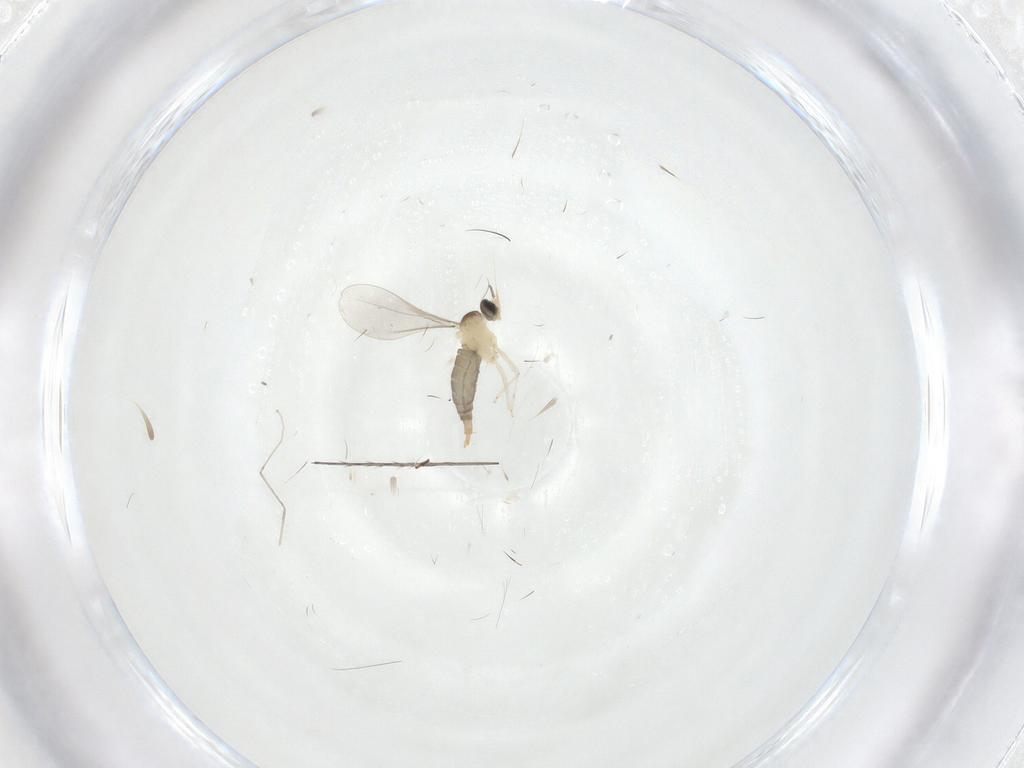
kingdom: Animalia
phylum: Arthropoda
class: Insecta
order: Diptera
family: Cecidomyiidae
